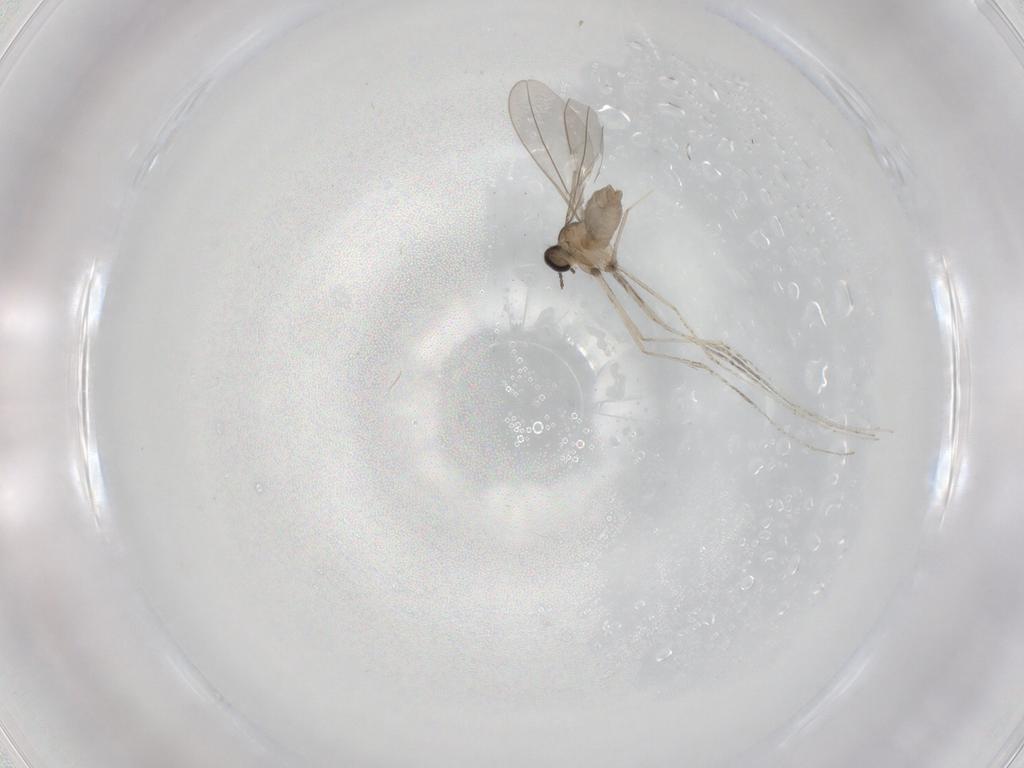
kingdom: Animalia
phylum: Arthropoda
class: Insecta
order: Diptera
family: Cecidomyiidae
